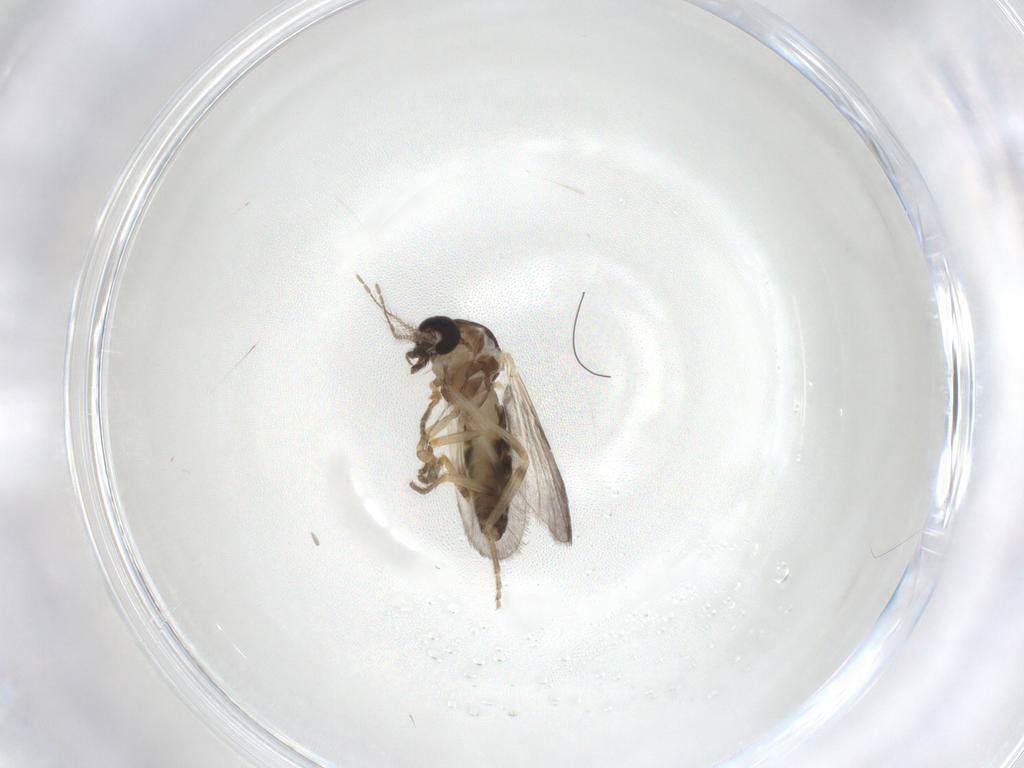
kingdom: Animalia
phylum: Arthropoda
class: Insecta
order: Diptera
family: Ceratopogonidae
